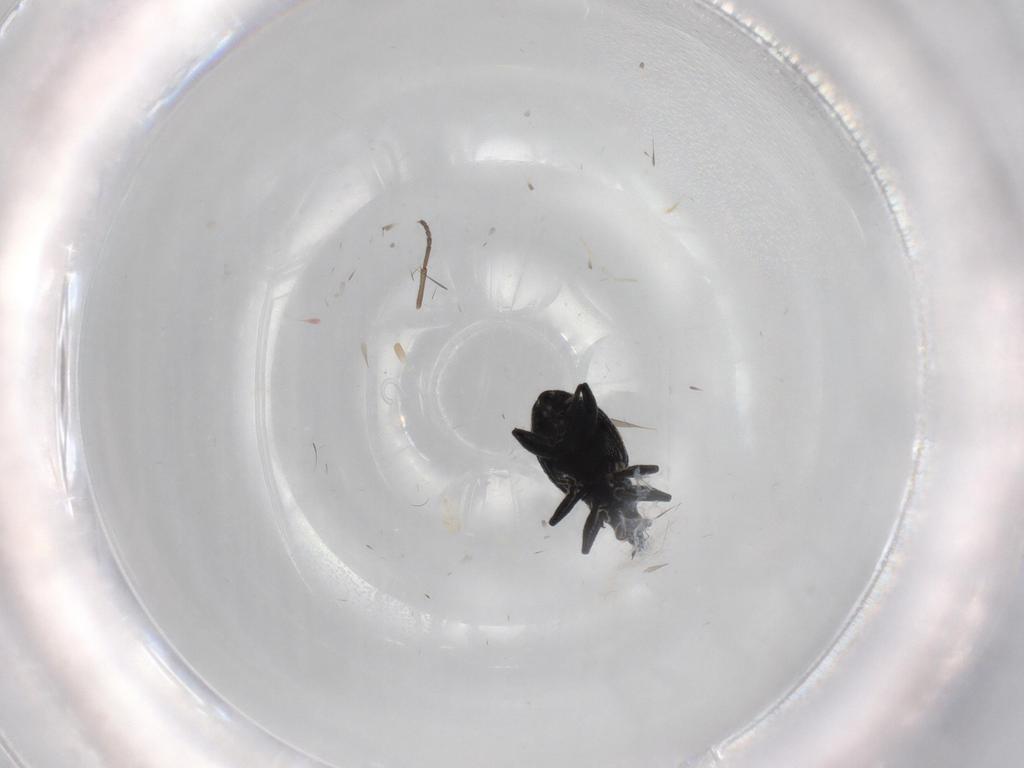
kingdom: Animalia
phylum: Arthropoda
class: Insecta
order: Coleoptera
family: Brentidae
